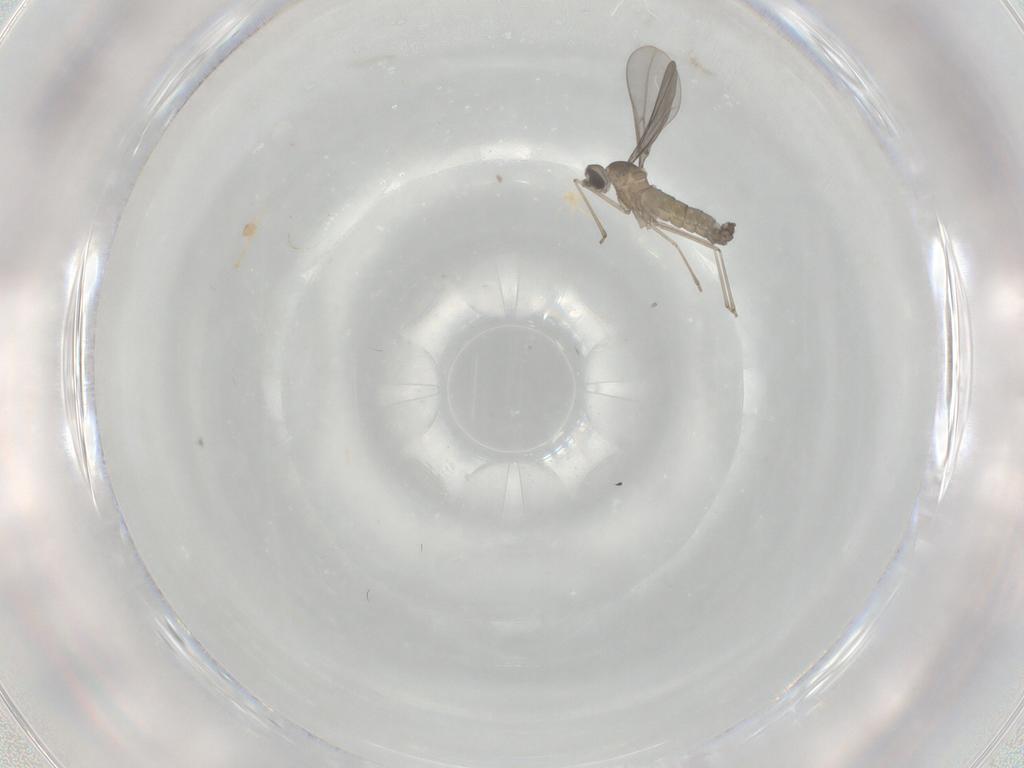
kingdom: Animalia
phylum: Arthropoda
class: Insecta
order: Diptera
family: Cecidomyiidae
